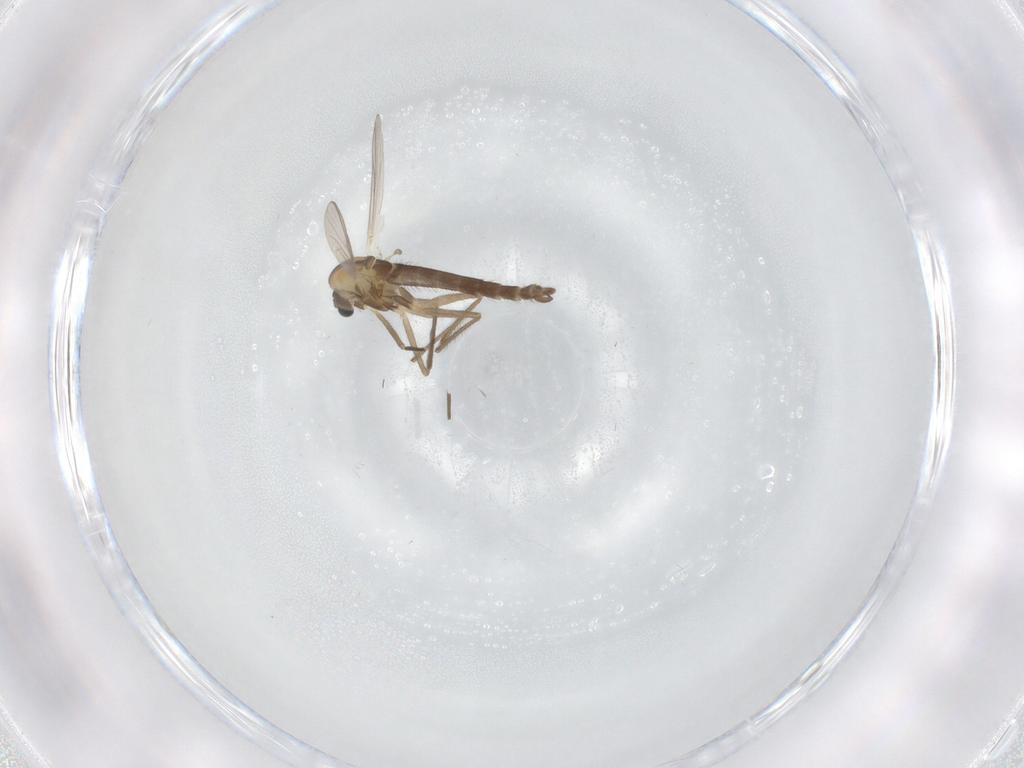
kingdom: Animalia
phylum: Arthropoda
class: Insecta
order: Diptera
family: Chironomidae
